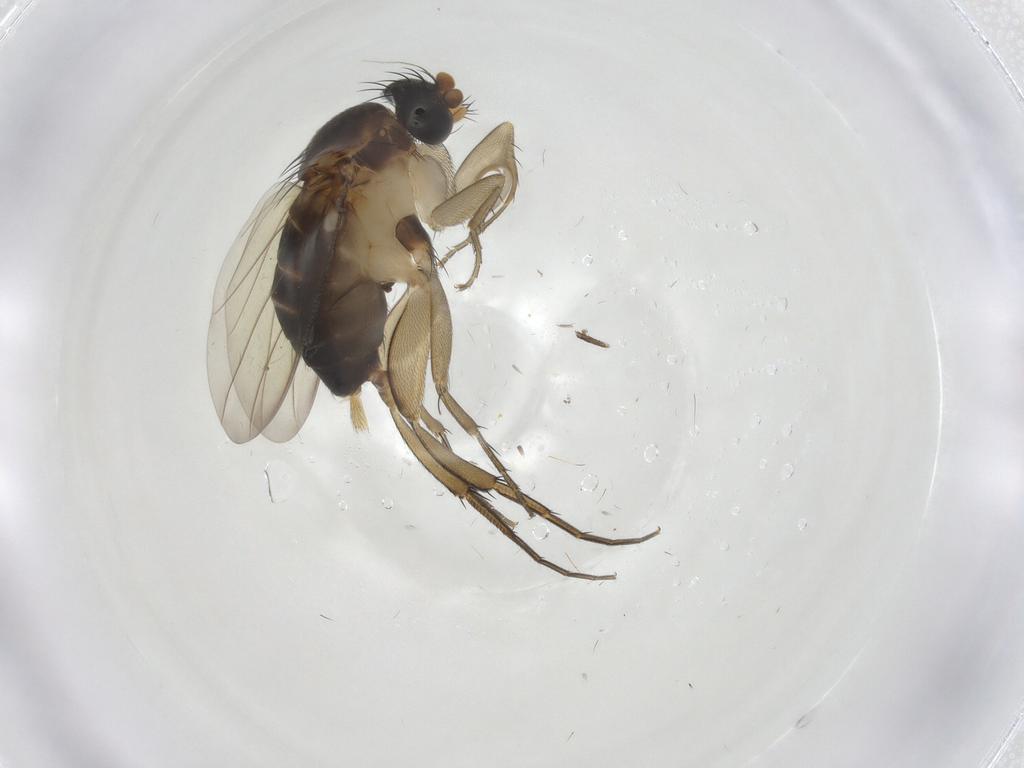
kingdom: Animalia
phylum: Arthropoda
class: Insecta
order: Diptera
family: Phoridae
